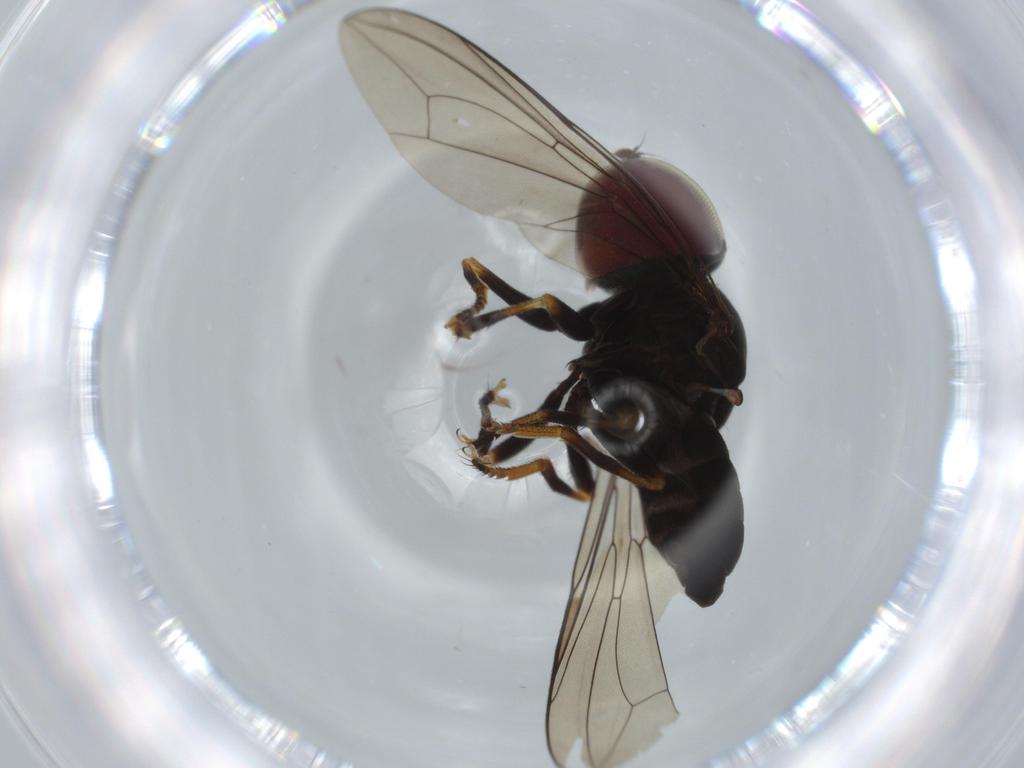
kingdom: Animalia
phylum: Arthropoda
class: Insecta
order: Diptera
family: Pipunculidae
